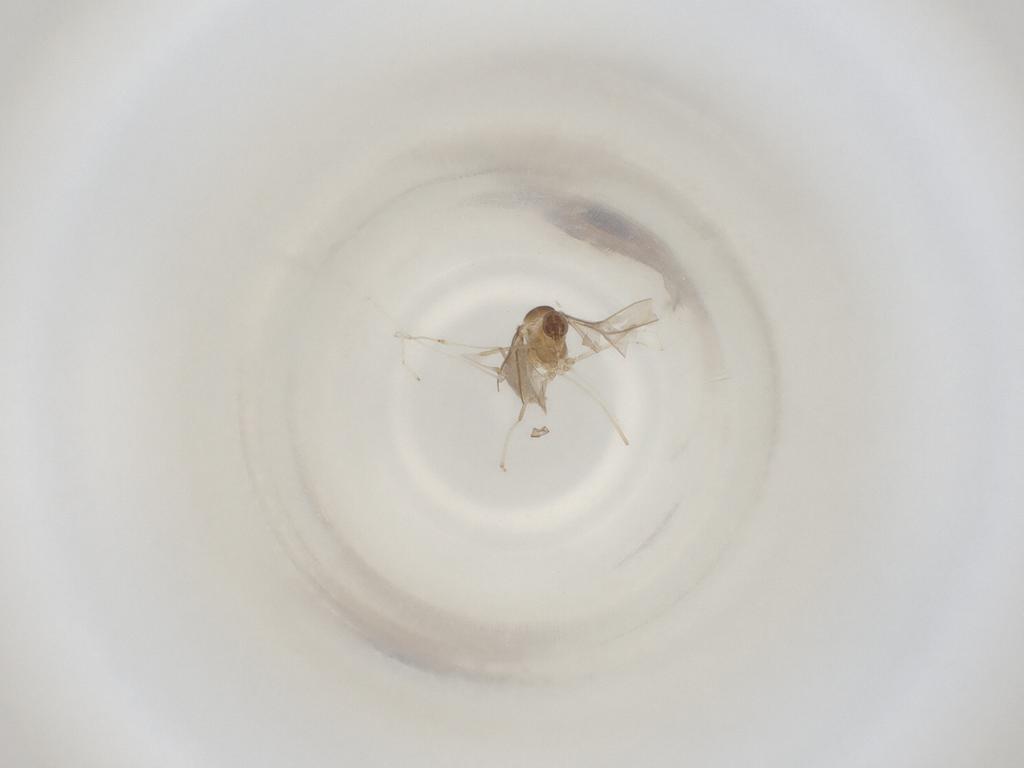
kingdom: Animalia
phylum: Arthropoda
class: Insecta
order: Diptera
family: Cecidomyiidae
